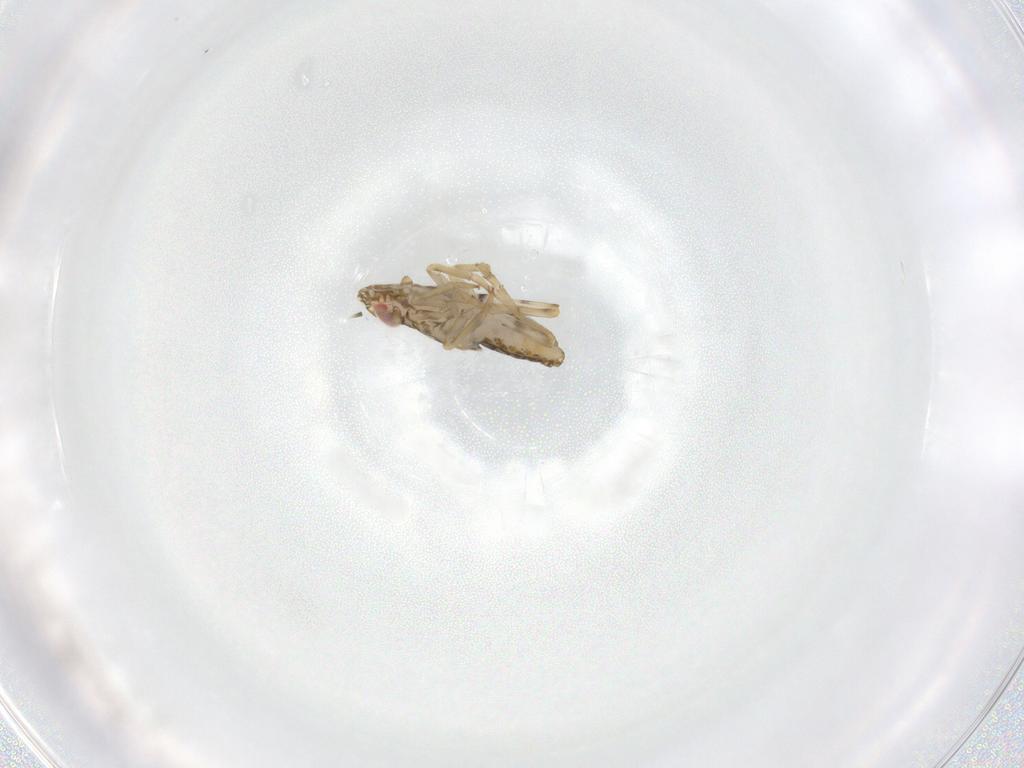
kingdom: Animalia
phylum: Arthropoda
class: Insecta
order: Hemiptera
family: Delphacidae
